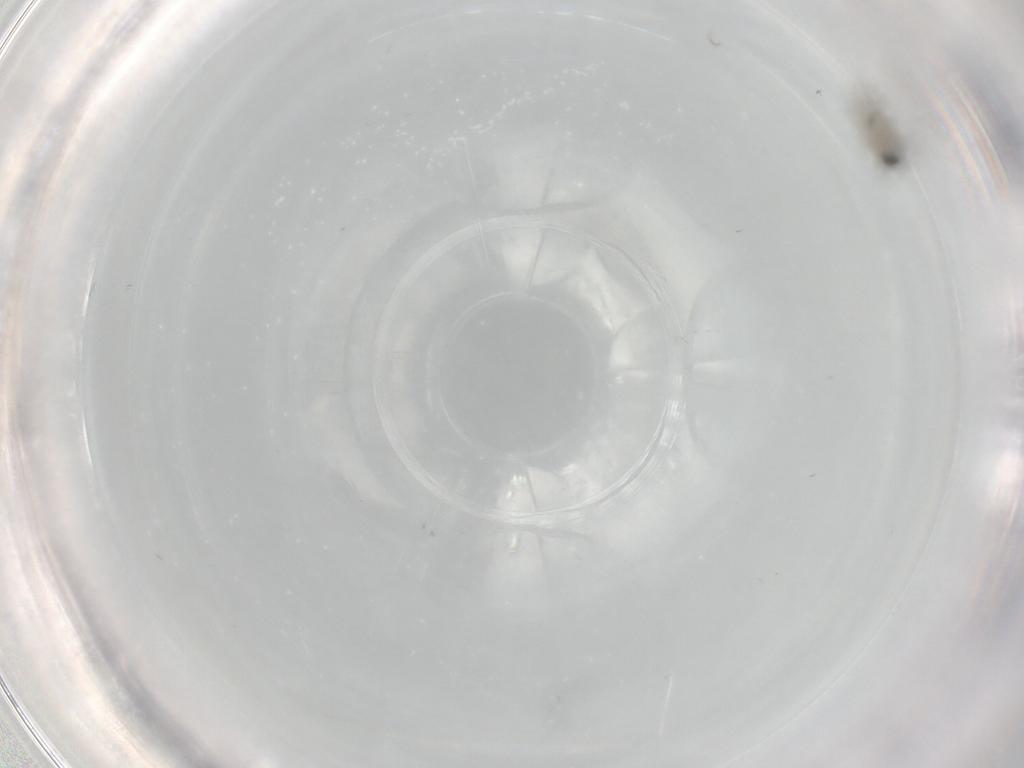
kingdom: Animalia
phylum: Arthropoda
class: Insecta
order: Diptera
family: Cecidomyiidae
